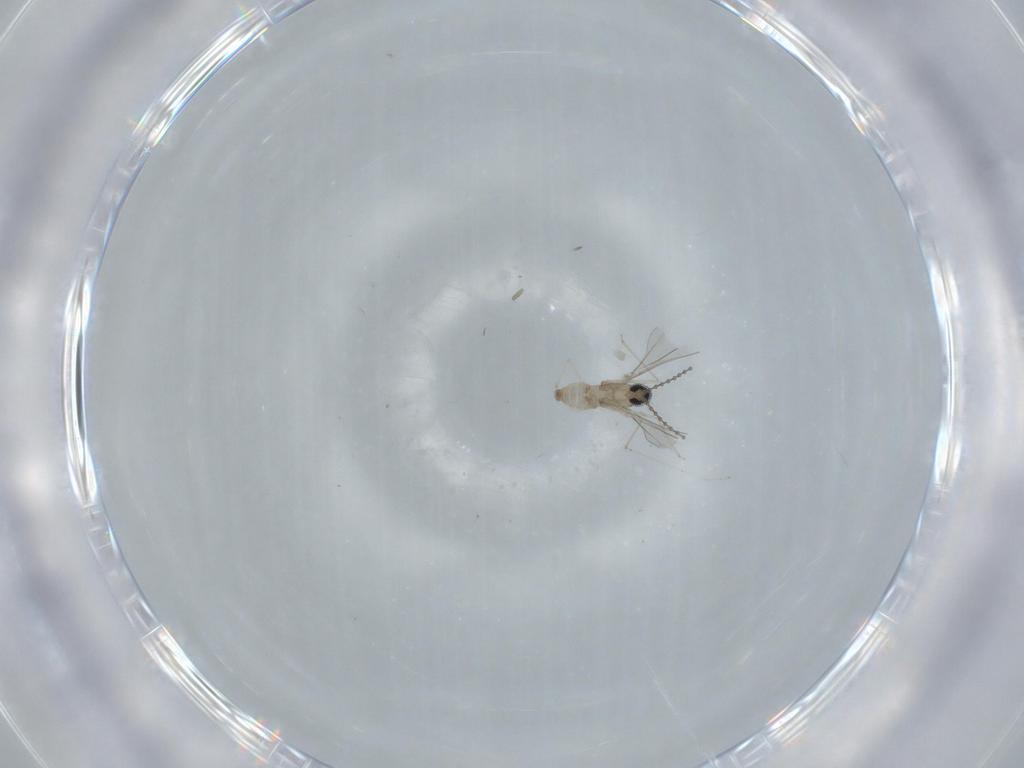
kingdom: Animalia
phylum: Arthropoda
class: Insecta
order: Diptera
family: Cecidomyiidae
